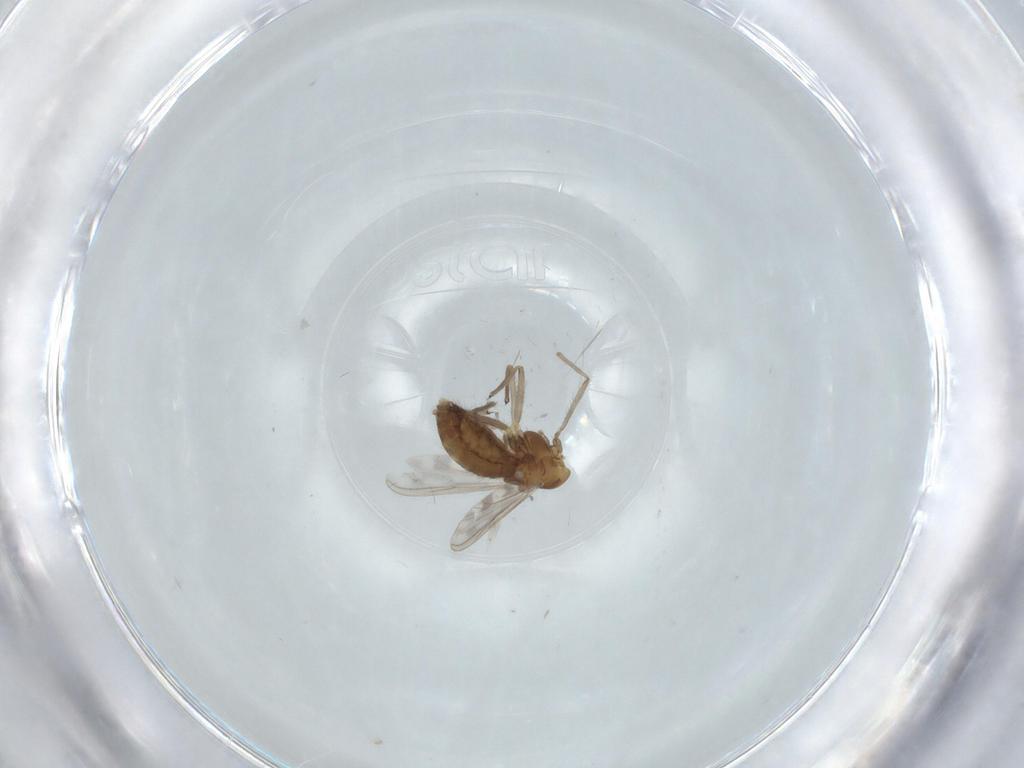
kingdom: Animalia
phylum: Arthropoda
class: Insecta
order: Diptera
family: Chironomidae
